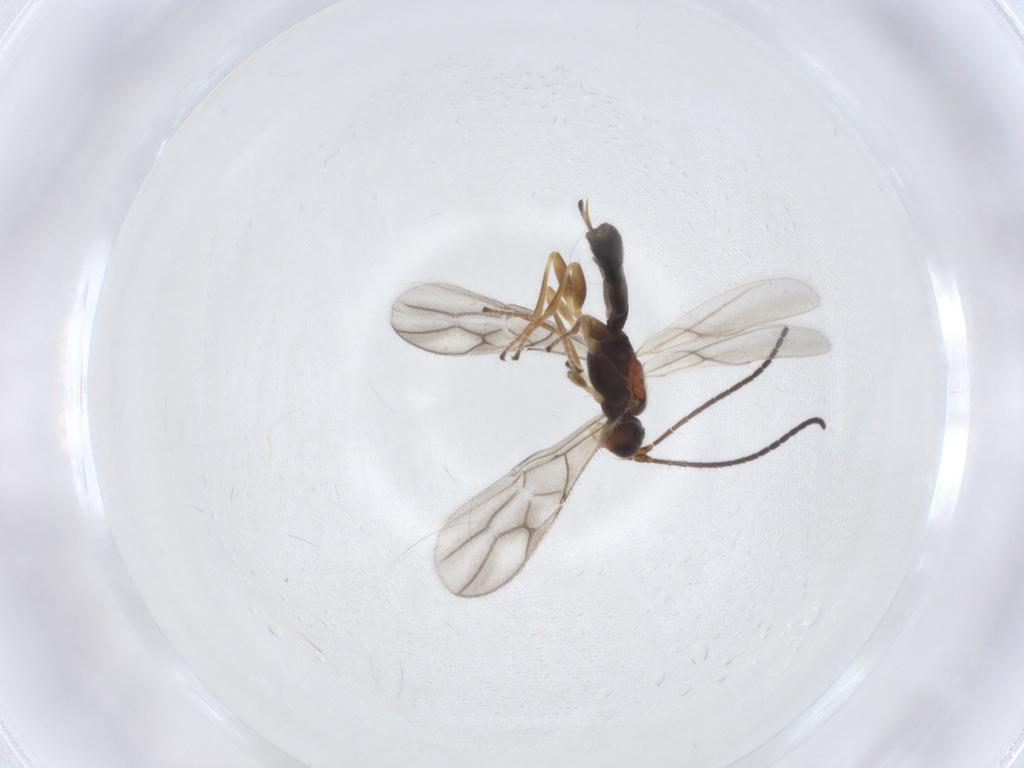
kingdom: Animalia
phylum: Arthropoda
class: Insecta
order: Hymenoptera
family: Braconidae
